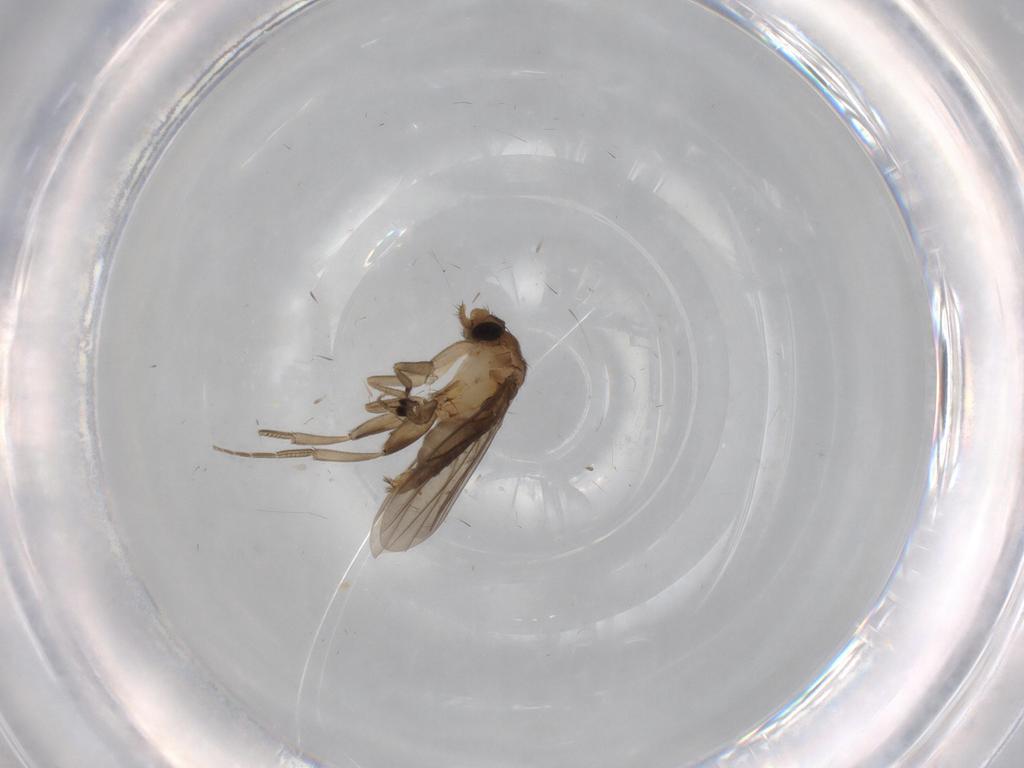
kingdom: Animalia
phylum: Arthropoda
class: Insecta
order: Diptera
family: Phoridae
